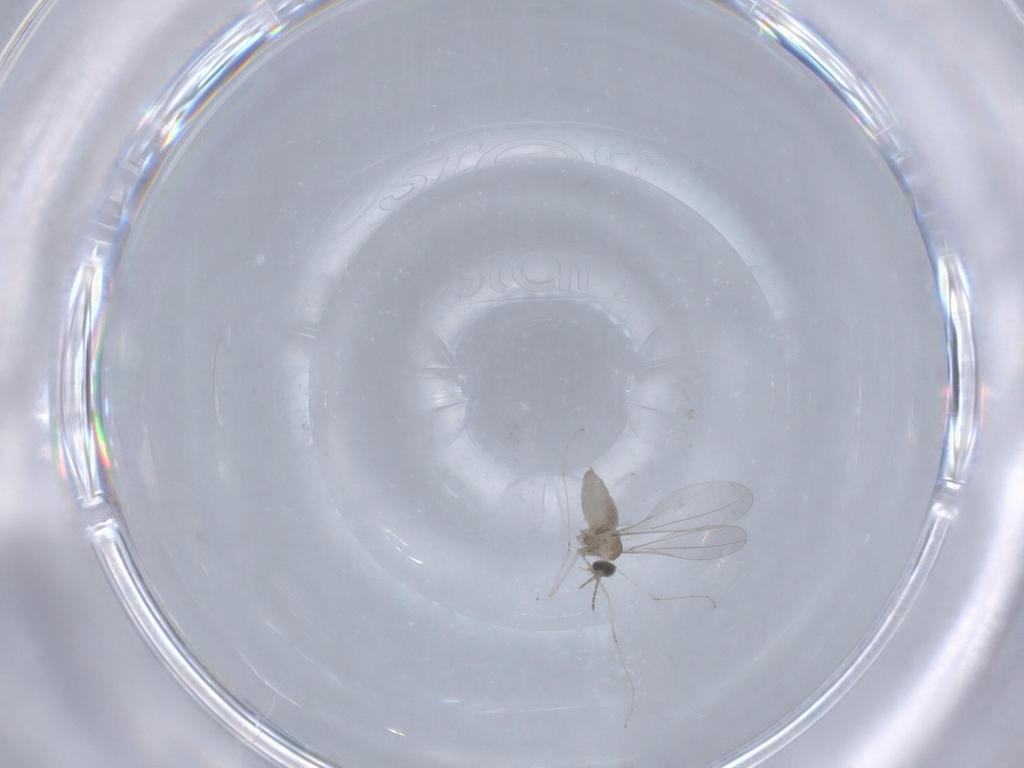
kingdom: Animalia
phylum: Arthropoda
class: Insecta
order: Diptera
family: Cecidomyiidae
